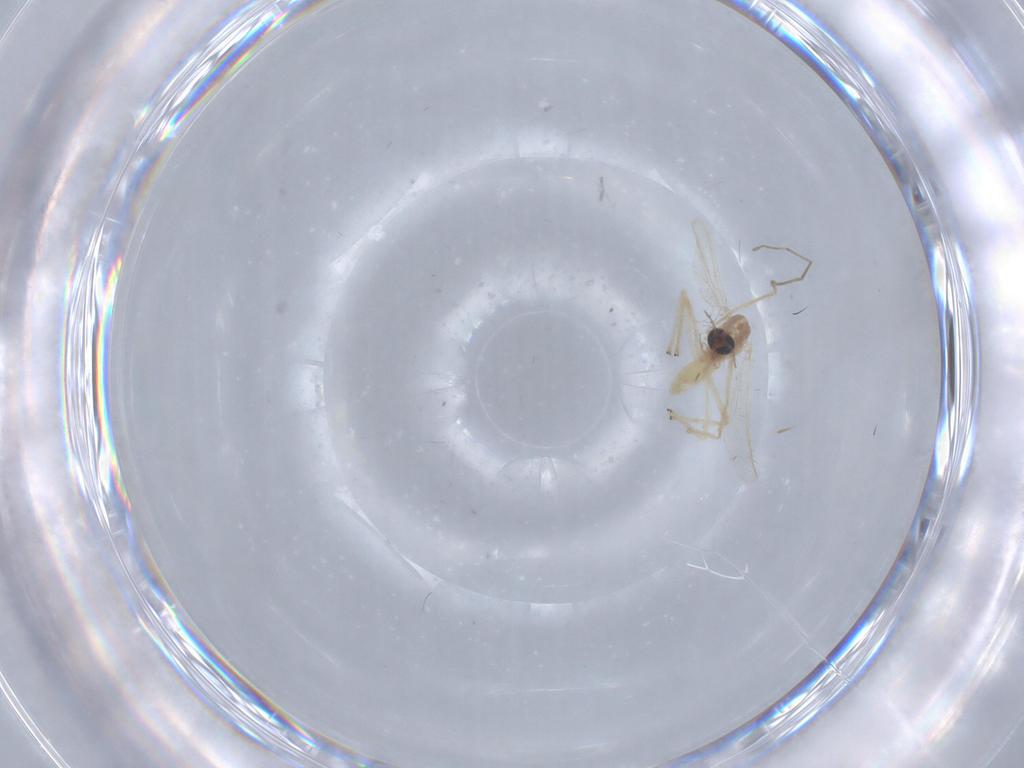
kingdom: Animalia
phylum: Arthropoda
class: Insecta
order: Diptera
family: Chironomidae
